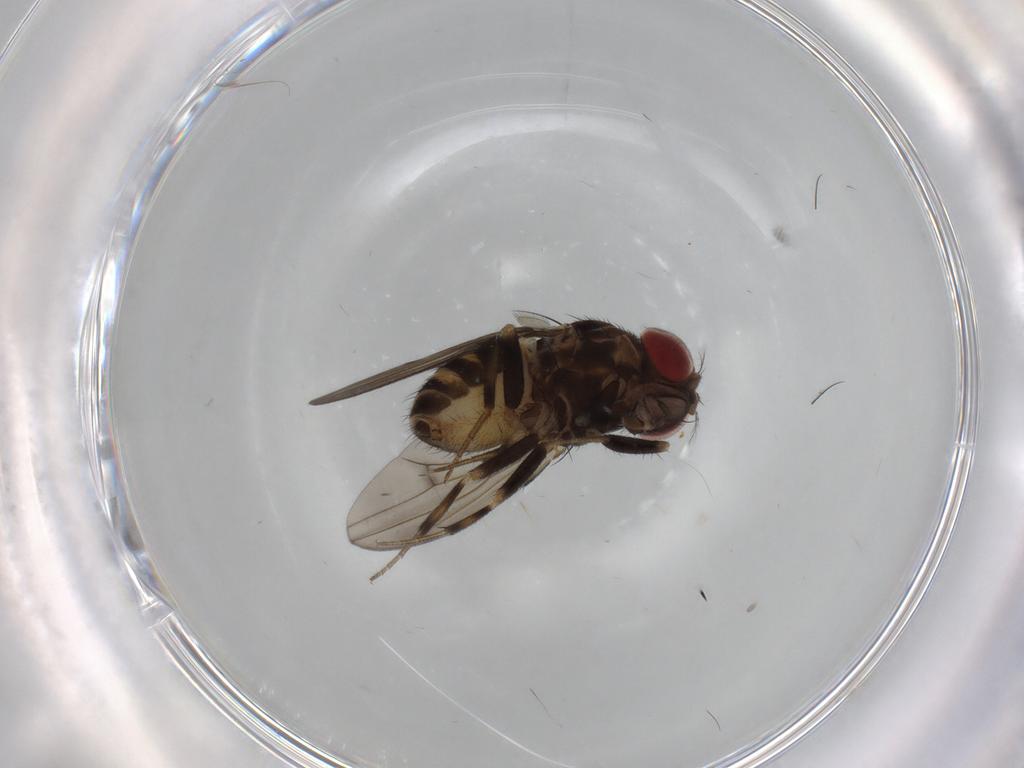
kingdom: Animalia
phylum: Arthropoda
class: Insecta
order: Diptera
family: Drosophilidae
